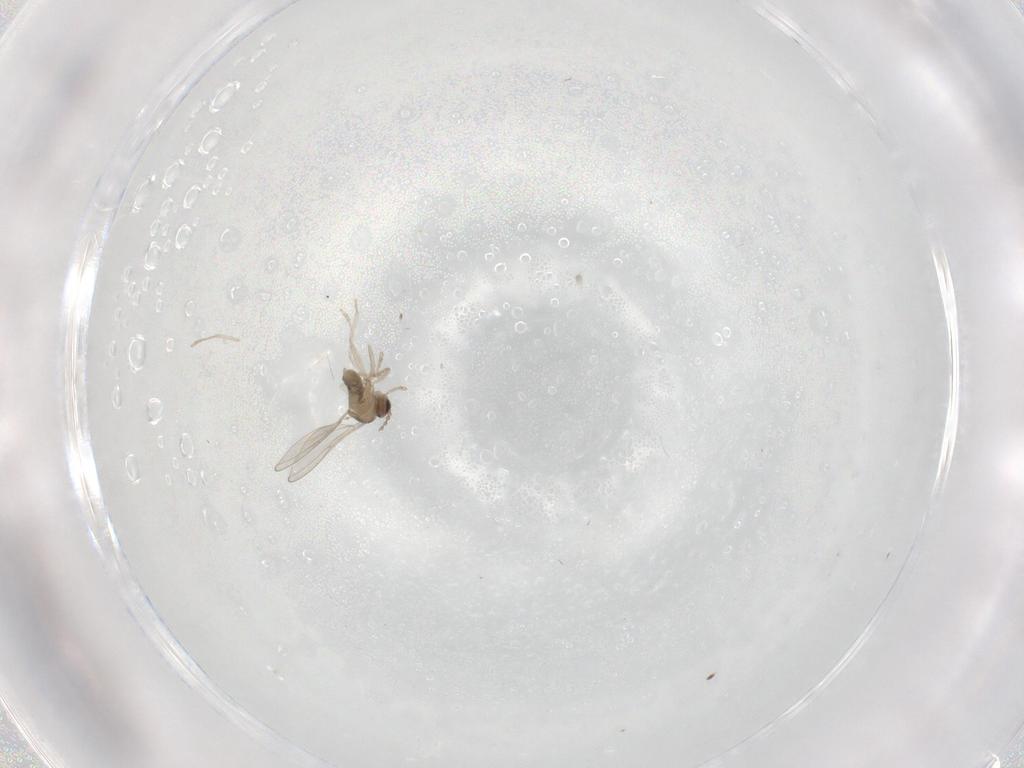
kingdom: Animalia
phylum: Arthropoda
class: Insecta
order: Diptera
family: Cecidomyiidae
